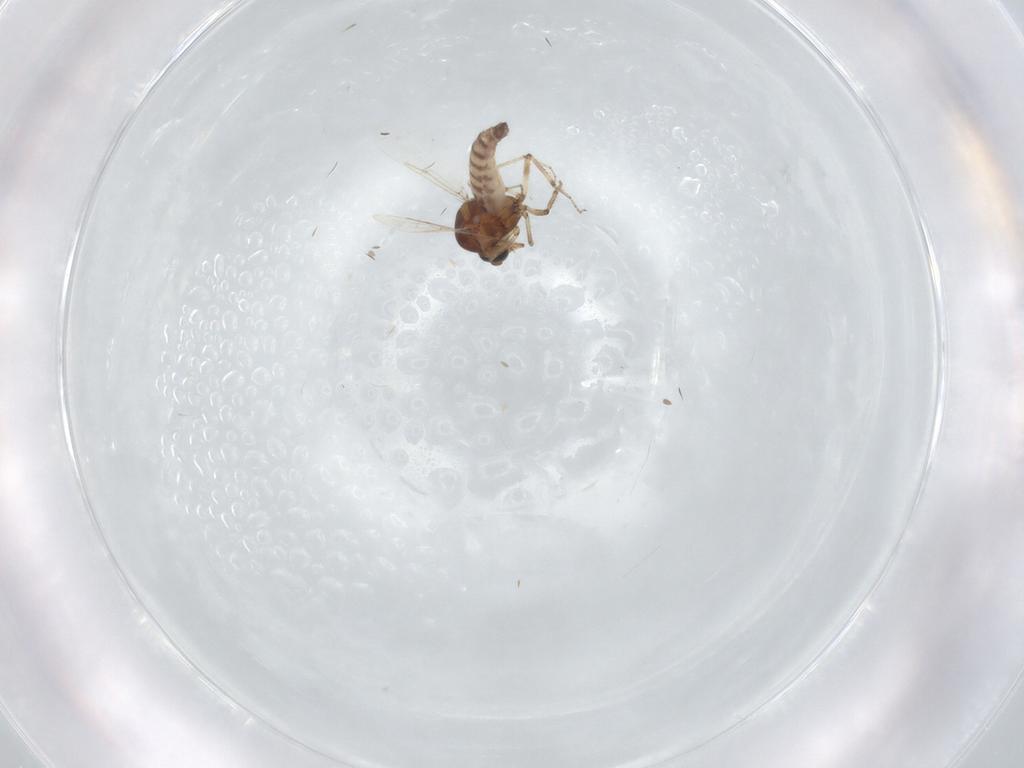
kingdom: Animalia
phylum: Arthropoda
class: Insecta
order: Diptera
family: Ceratopogonidae
